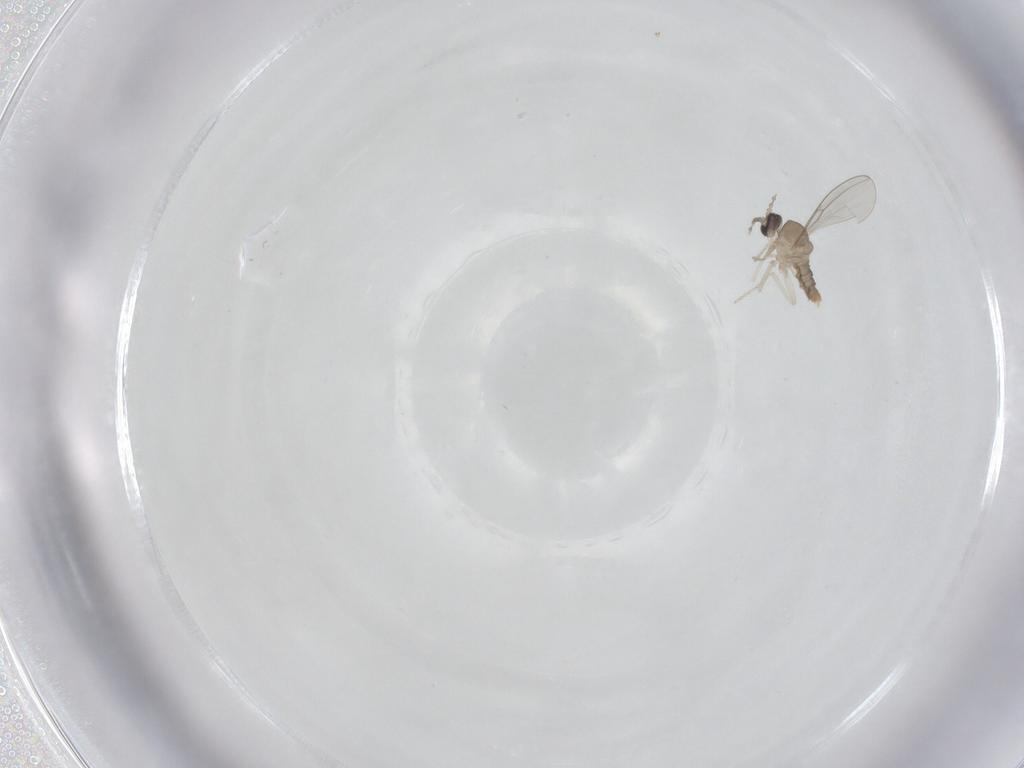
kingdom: Animalia
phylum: Arthropoda
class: Insecta
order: Diptera
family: Cecidomyiidae
